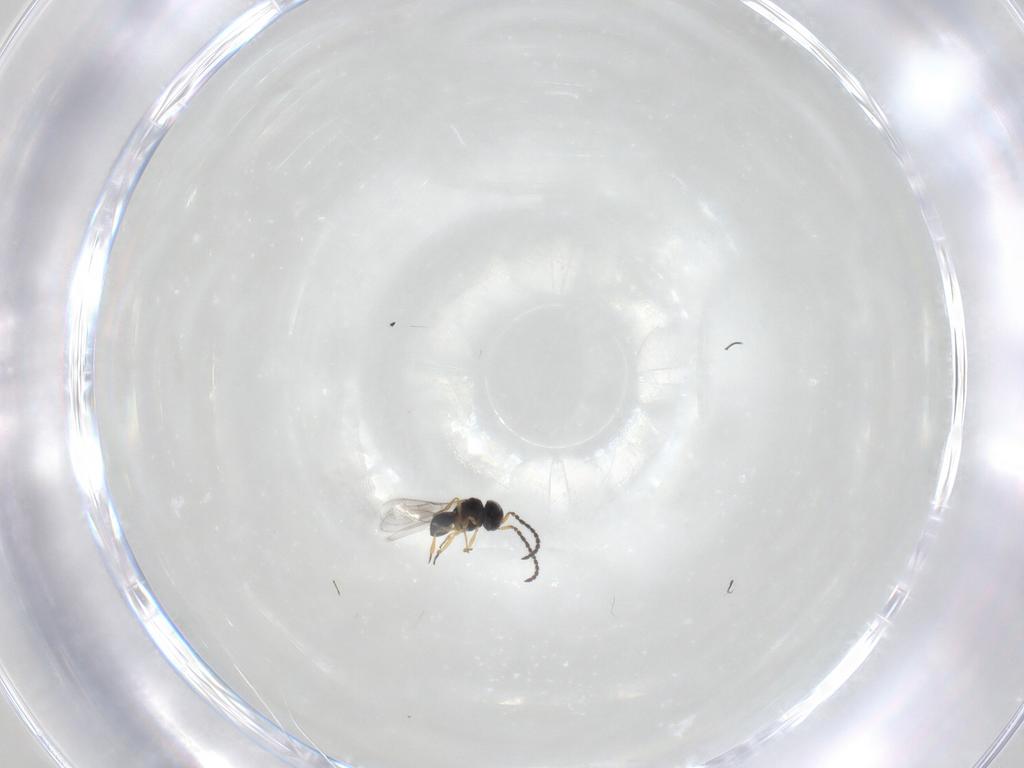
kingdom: Animalia
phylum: Arthropoda
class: Insecta
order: Hymenoptera
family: Scelionidae
